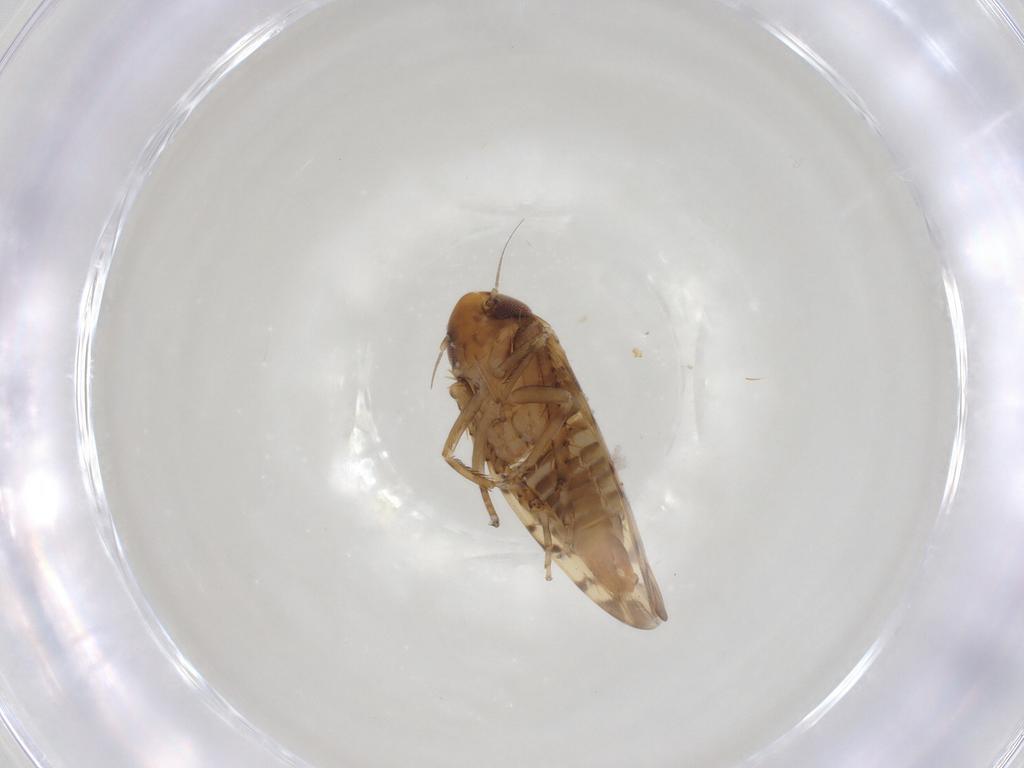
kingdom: Animalia
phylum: Arthropoda
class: Insecta
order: Hemiptera
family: Cicadellidae
